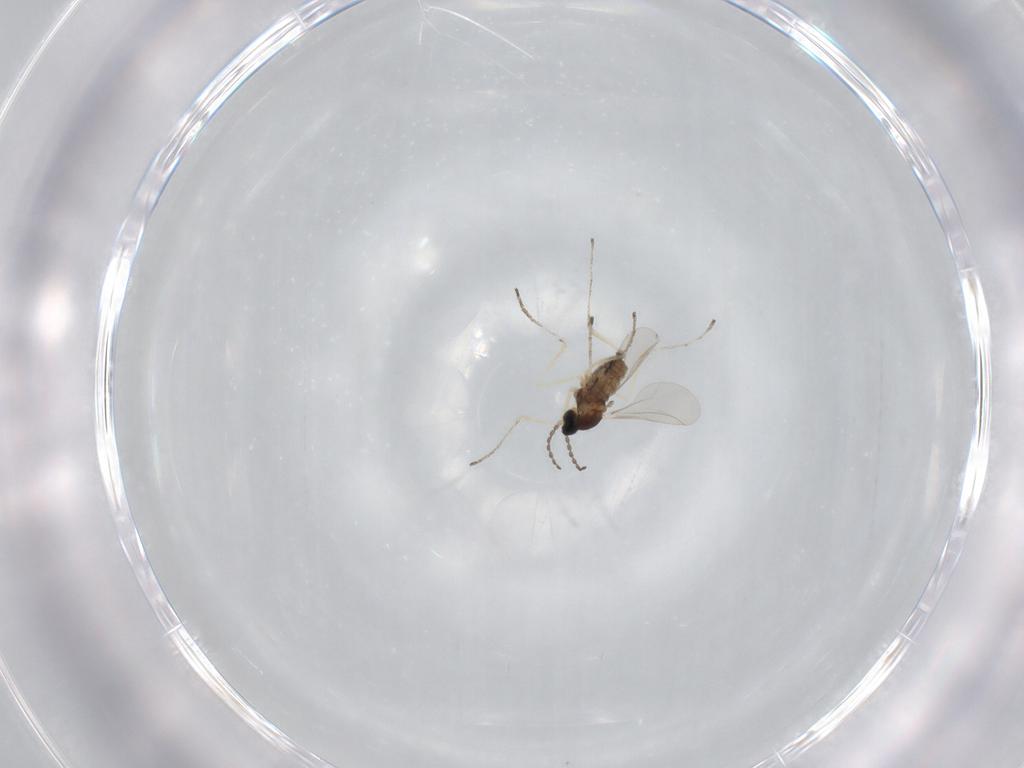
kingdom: Animalia
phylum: Arthropoda
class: Insecta
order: Diptera
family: Cecidomyiidae
